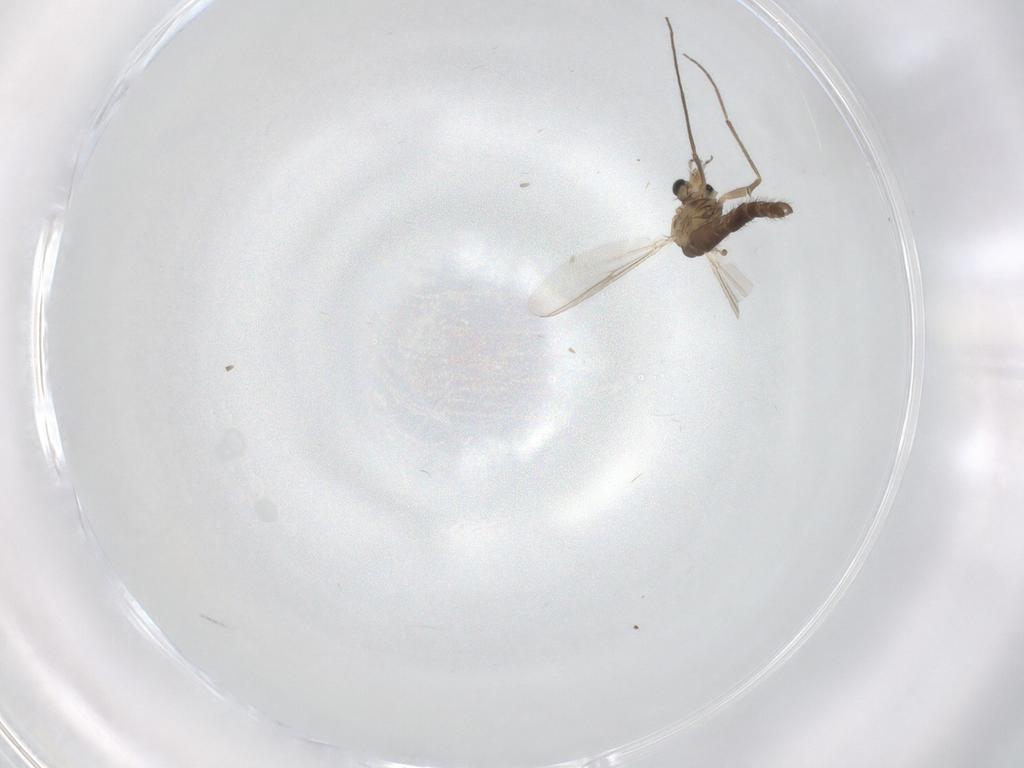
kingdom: Animalia
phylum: Arthropoda
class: Insecta
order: Diptera
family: Chironomidae
